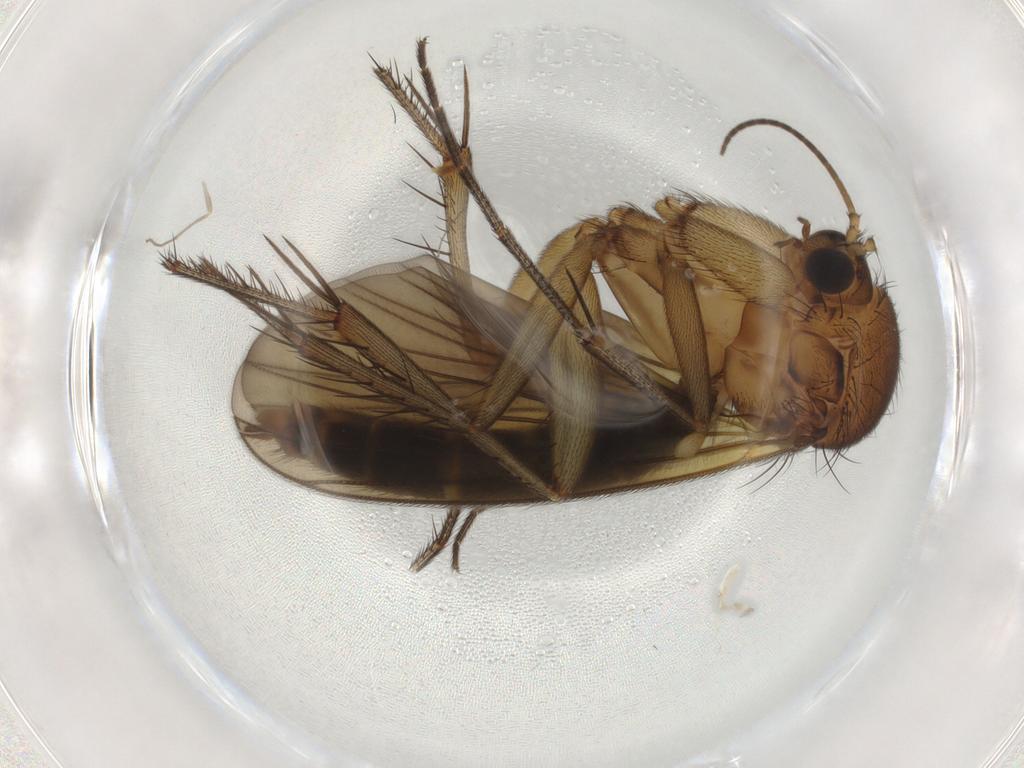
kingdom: Animalia
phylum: Arthropoda
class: Insecta
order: Diptera
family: Mycetophilidae
